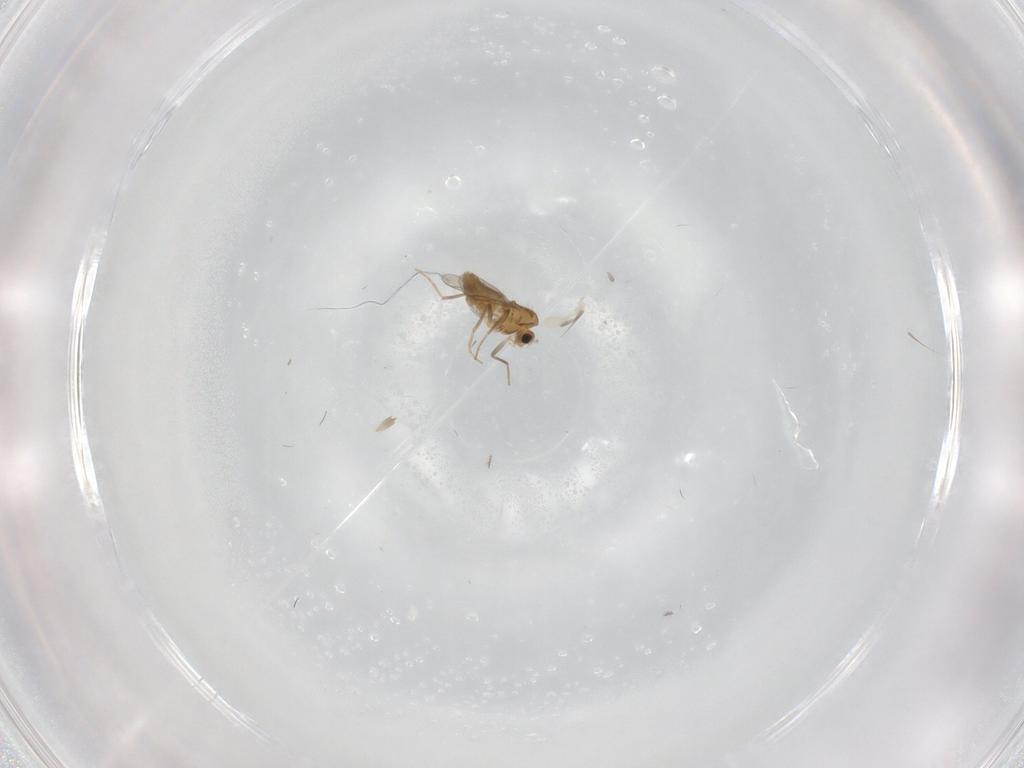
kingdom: Animalia
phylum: Arthropoda
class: Insecta
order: Diptera
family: Chironomidae
